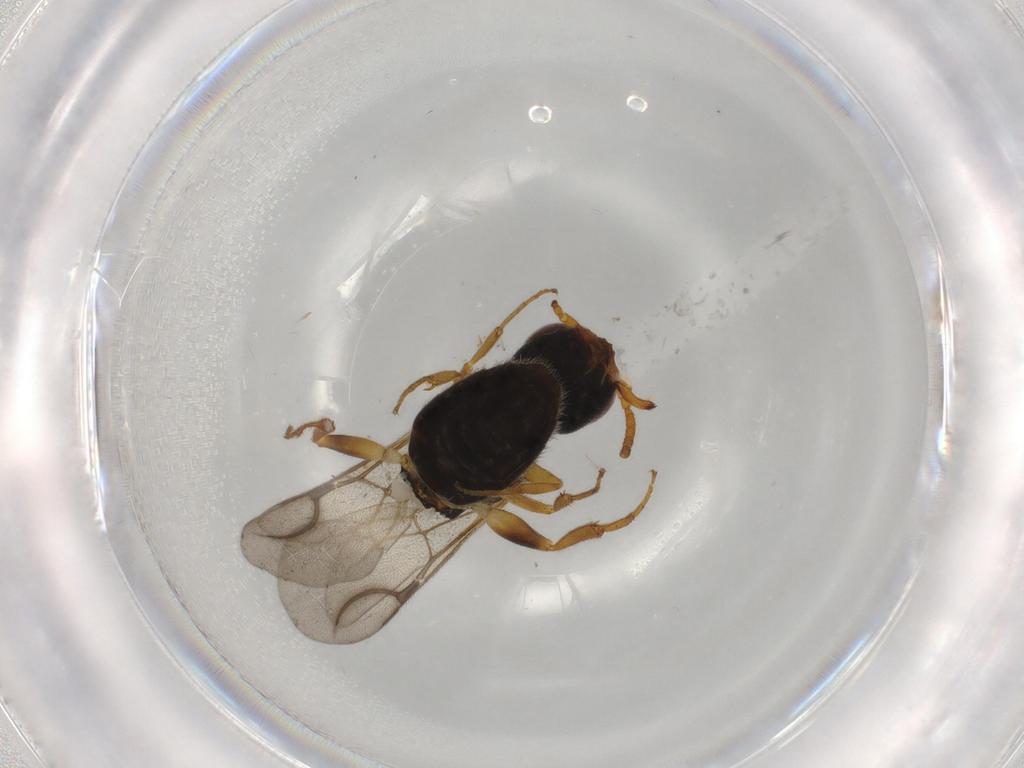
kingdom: Animalia
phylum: Arthropoda
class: Insecta
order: Hymenoptera
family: Bethylidae
